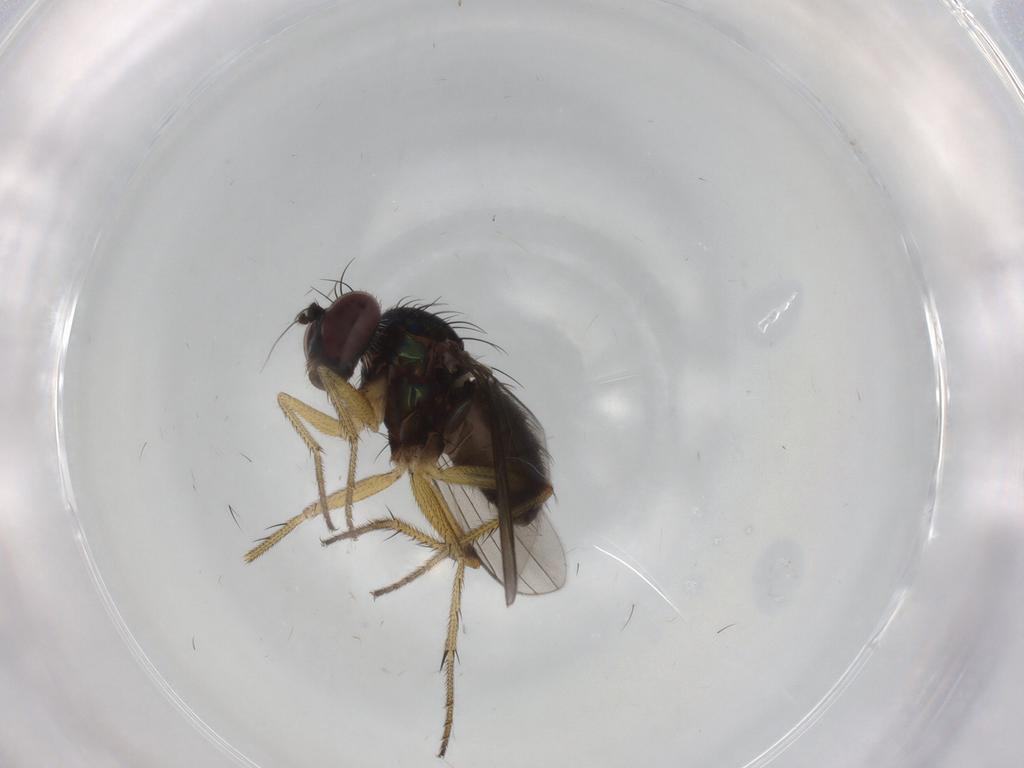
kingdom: Animalia
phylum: Arthropoda
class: Insecta
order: Diptera
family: Dolichopodidae
